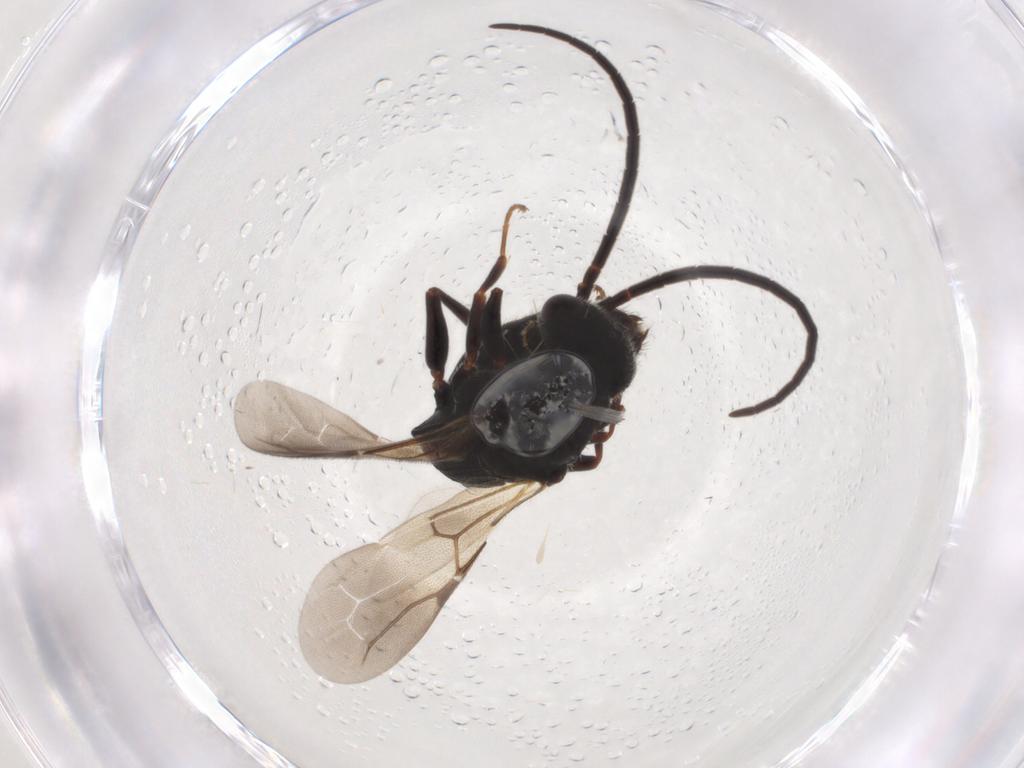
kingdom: Animalia
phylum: Arthropoda
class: Insecta
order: Hymenoptera
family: Bethylidae
